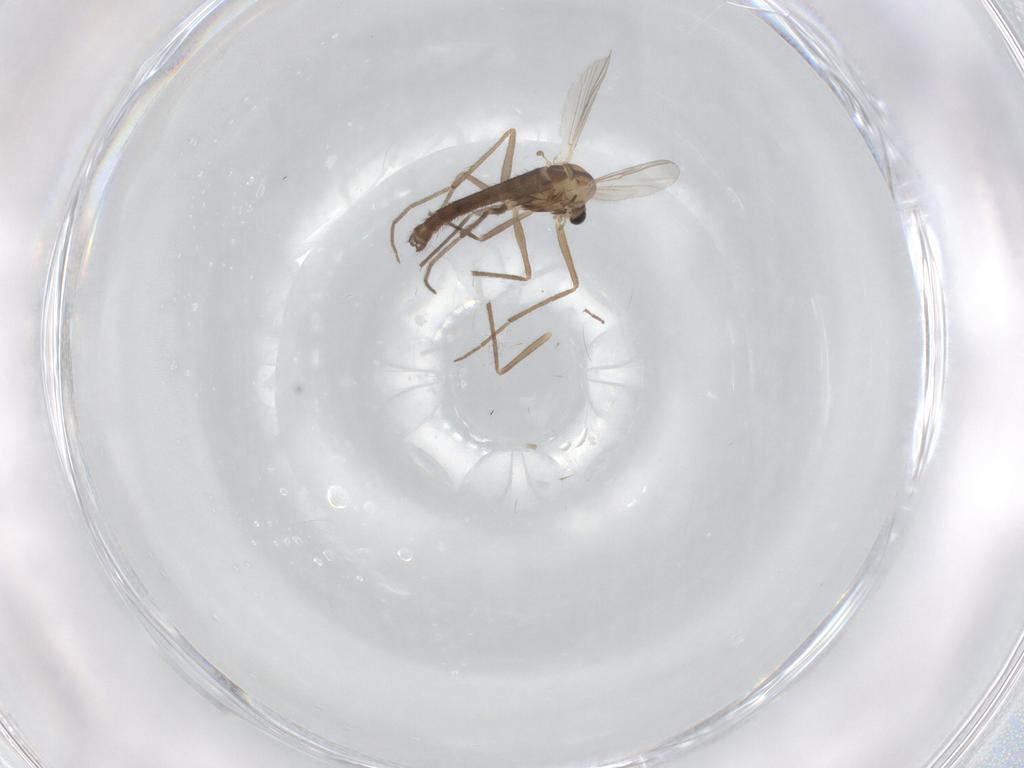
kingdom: Animalia
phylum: Arthropoda
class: Insecta
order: Diptera
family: Chironomidae
